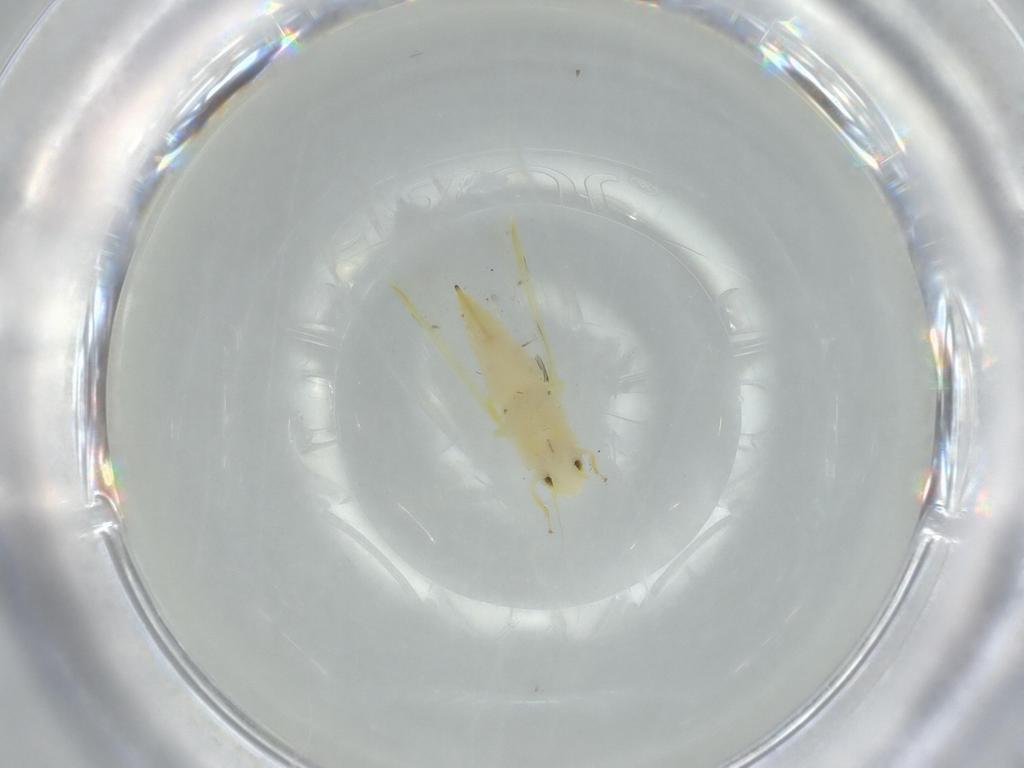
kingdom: Animalia
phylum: Arthropoda
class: Insecta
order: Hemiptera
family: Cicadellidae
